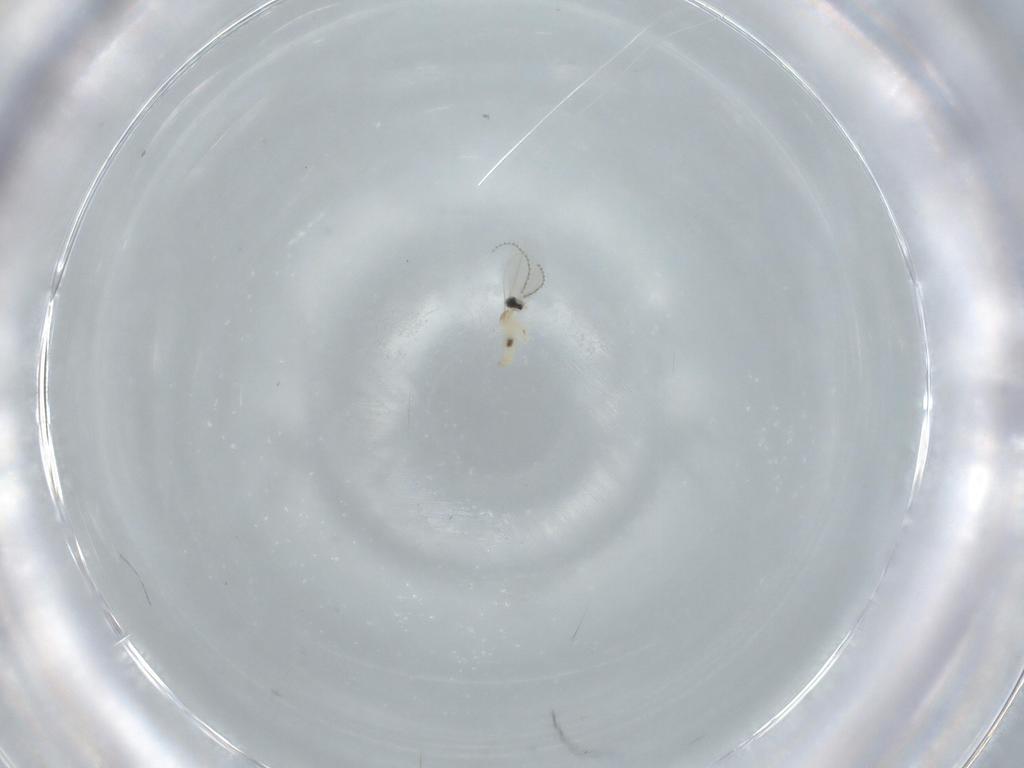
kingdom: Animalia
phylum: Arthropoda
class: Insecta
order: Diptera
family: Chironomidae
